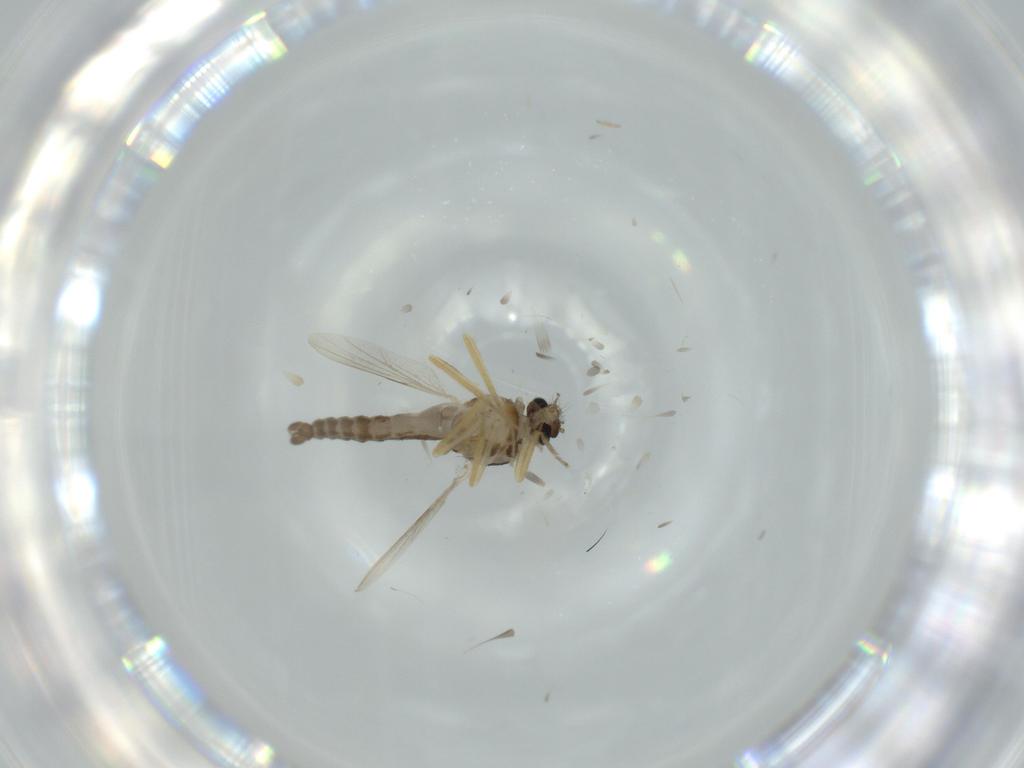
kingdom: Animalia
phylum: Arthropoda
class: Insecta
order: Diptera
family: Ceratopogonidae
